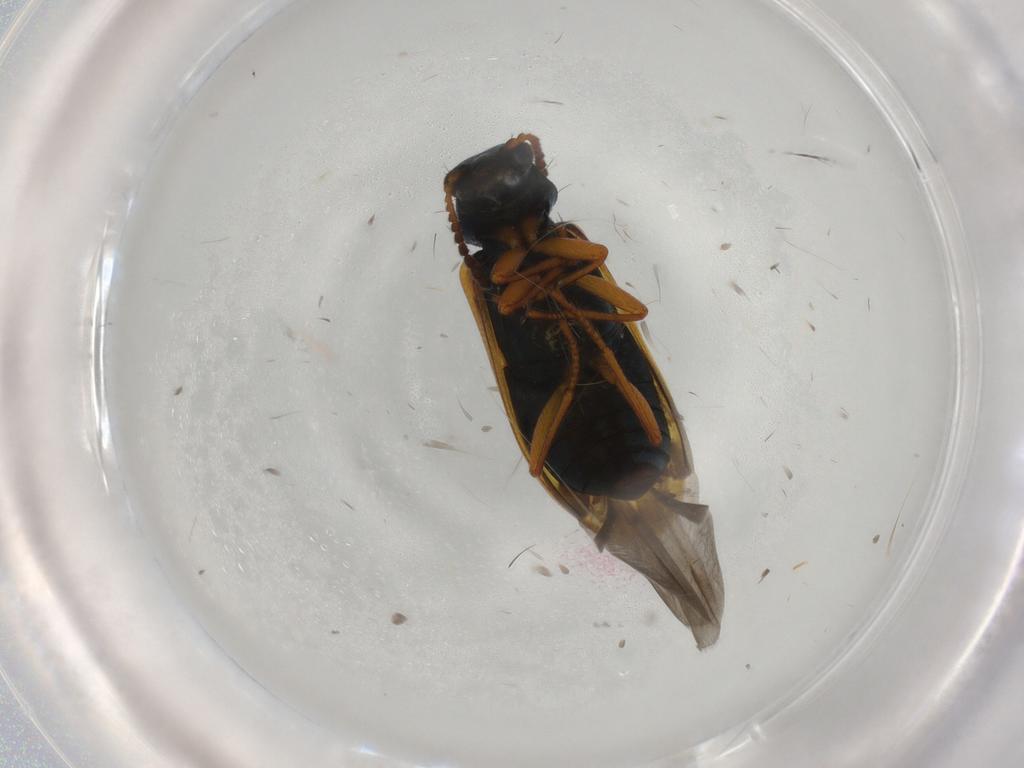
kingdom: Animalia
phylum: Arthropoda
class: Insecta
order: Coleoptera
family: Melyridae
